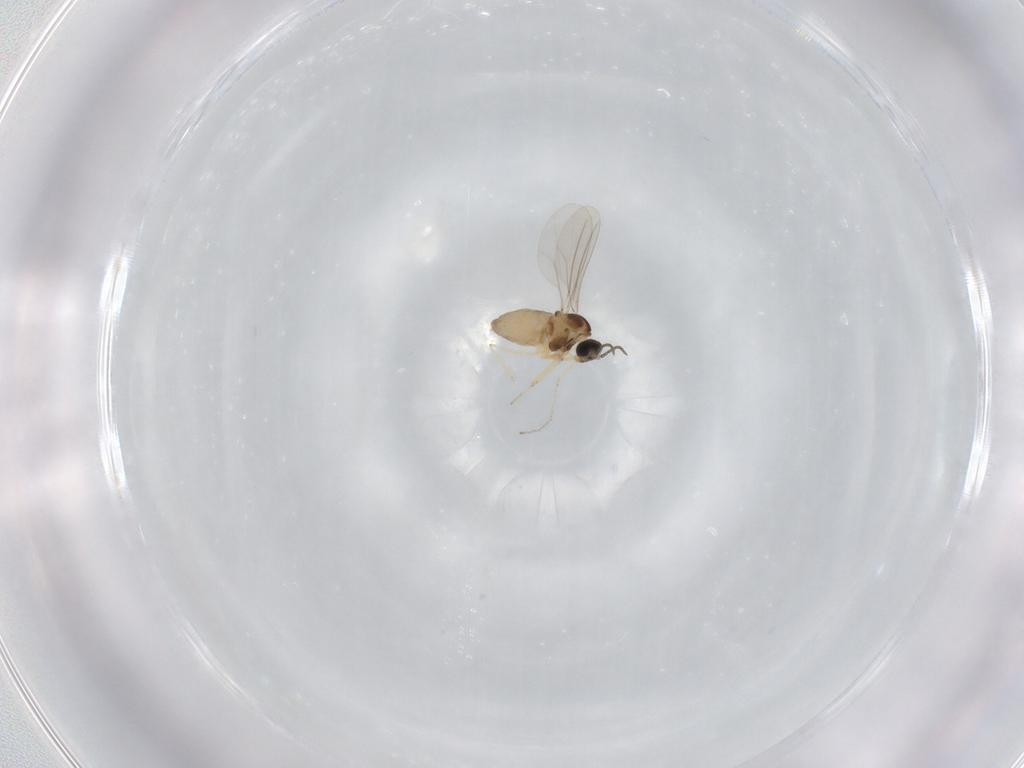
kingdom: Animalia
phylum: Arthropoda
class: Insecta
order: Diptera
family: Cecidomyiidae
